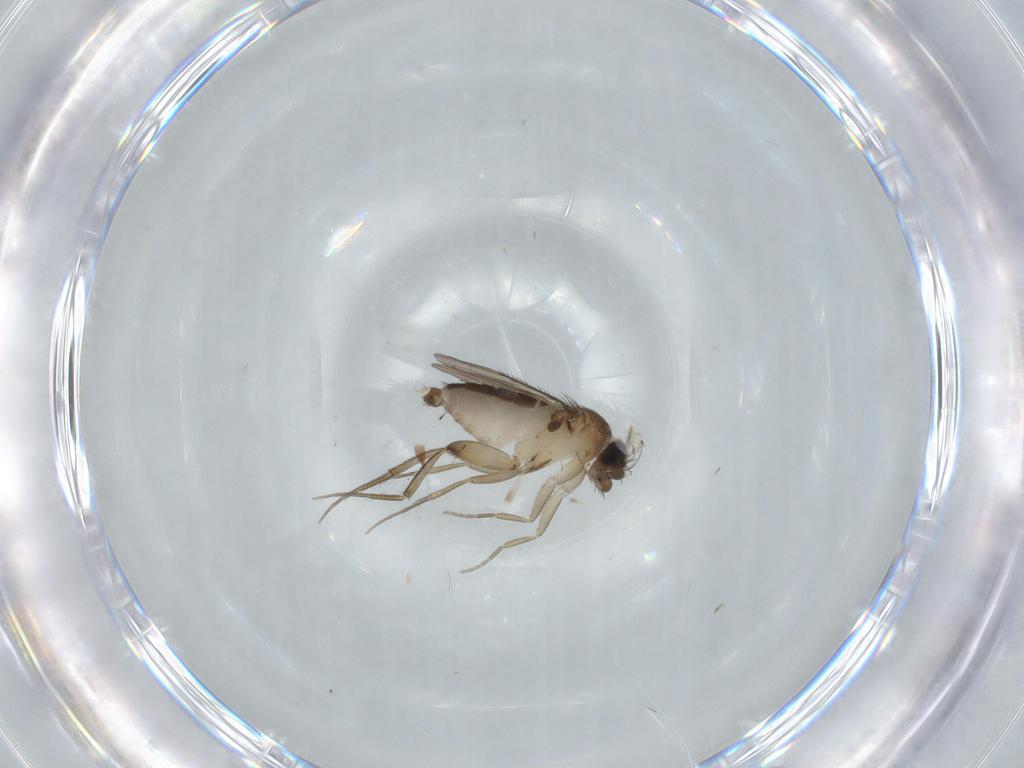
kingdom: Animalia
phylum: Arthropoda
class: Insecta
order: Diptera
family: Phoridae
